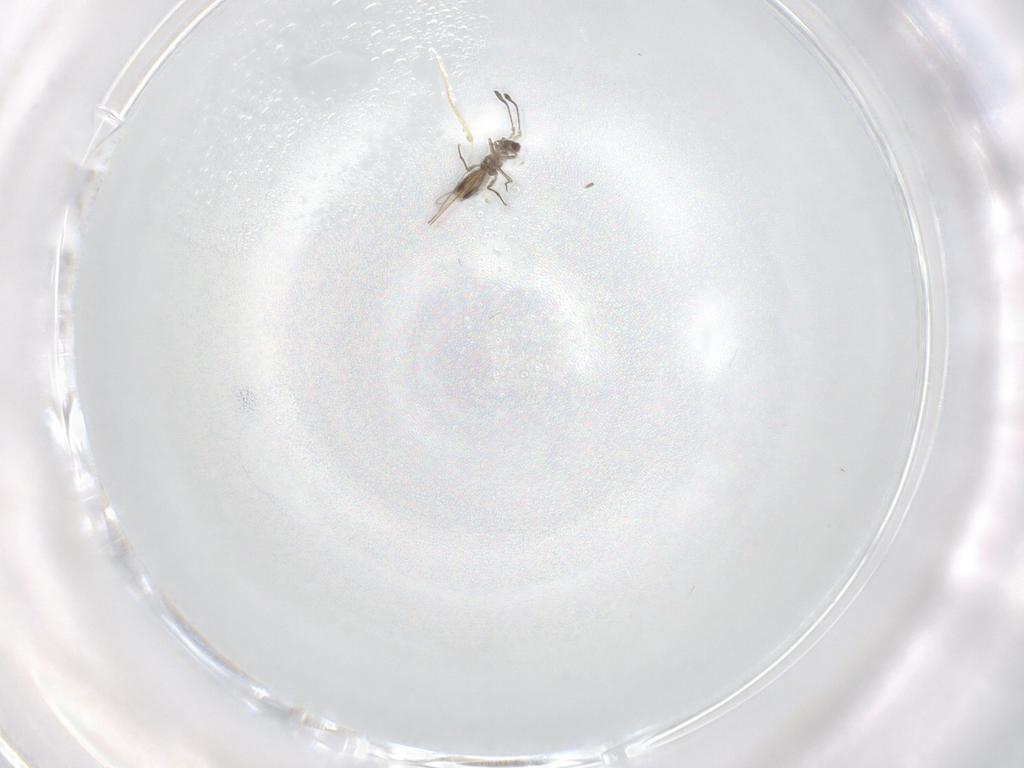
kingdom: Animalia
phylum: Arthropoda
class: Insecta
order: Hymenoptera
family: Mymaridae
